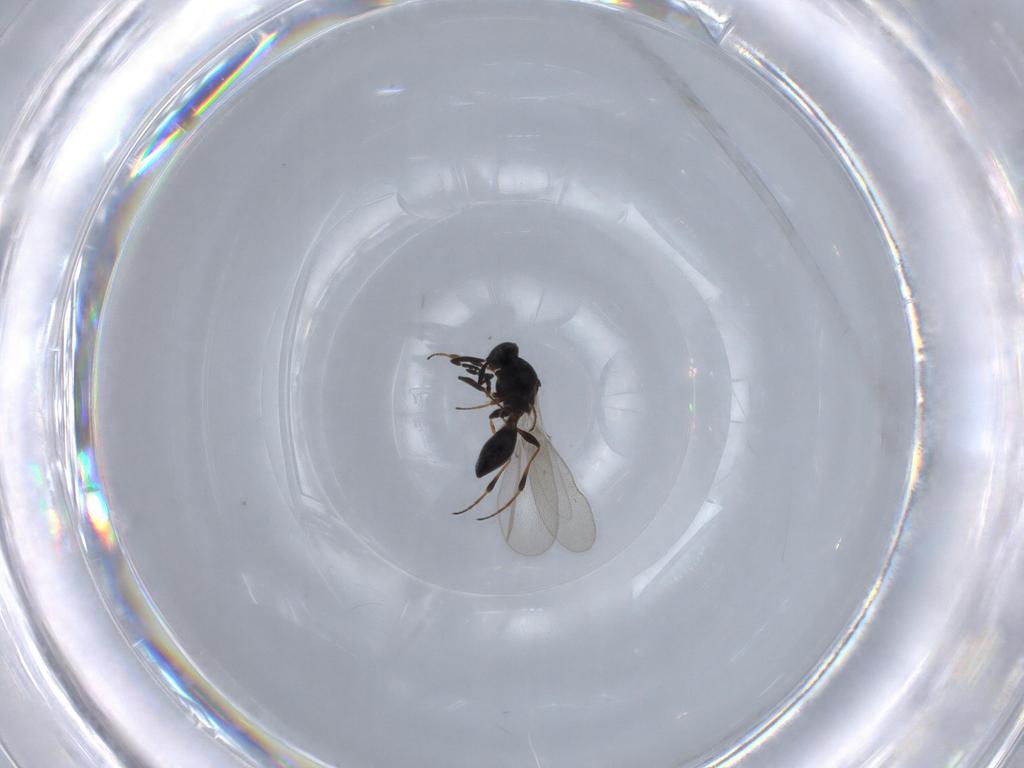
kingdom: Animalia
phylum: Arthropoda
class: Insecta
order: Hymenoptera
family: Platygastridae
